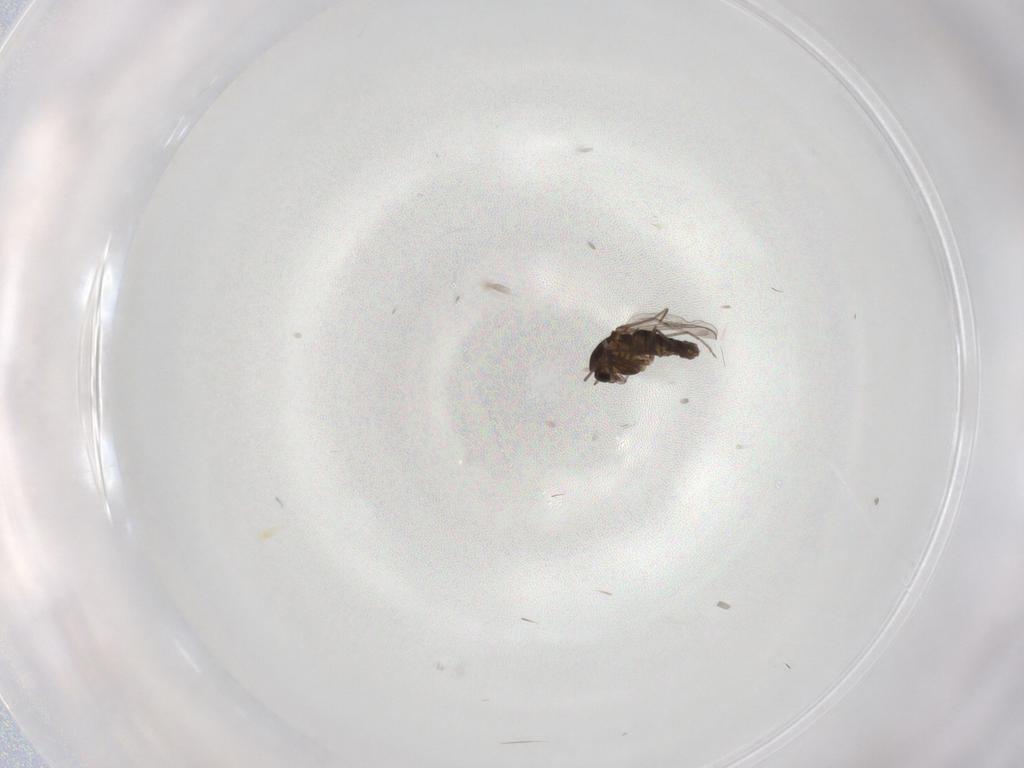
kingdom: Animalia
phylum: Arthropoda
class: Insecta
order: Diptera
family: Chironomidae
